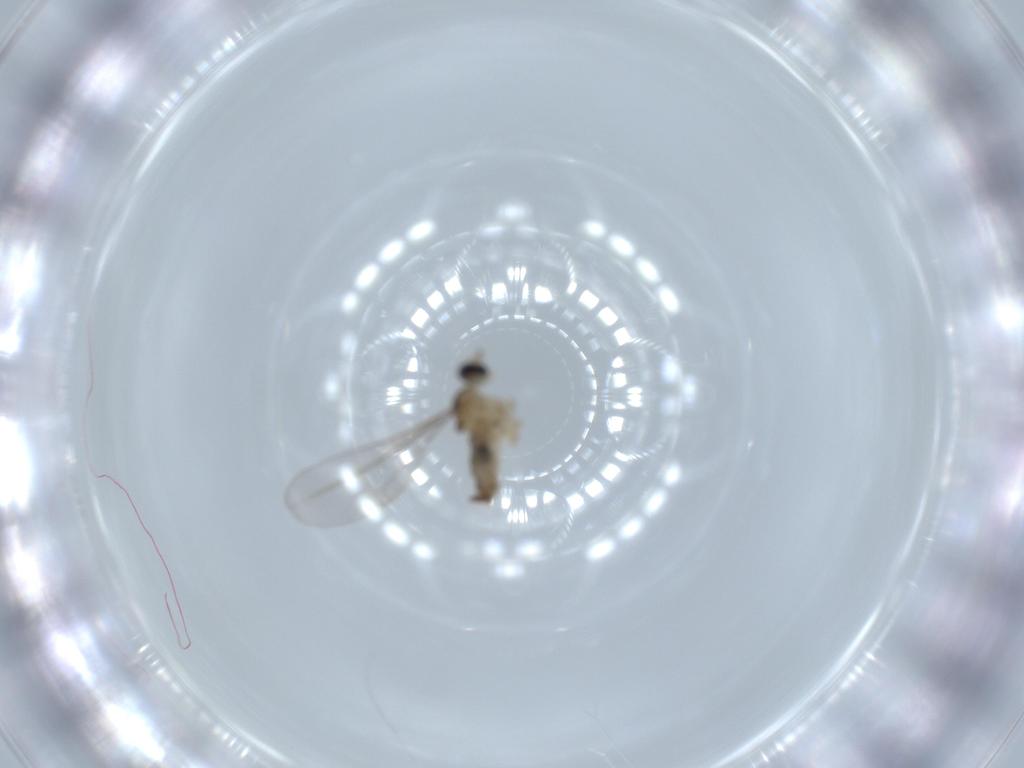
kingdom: Animalia
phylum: Arthropoda
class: Insecta
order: Diptera
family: Cecidomyiidae
